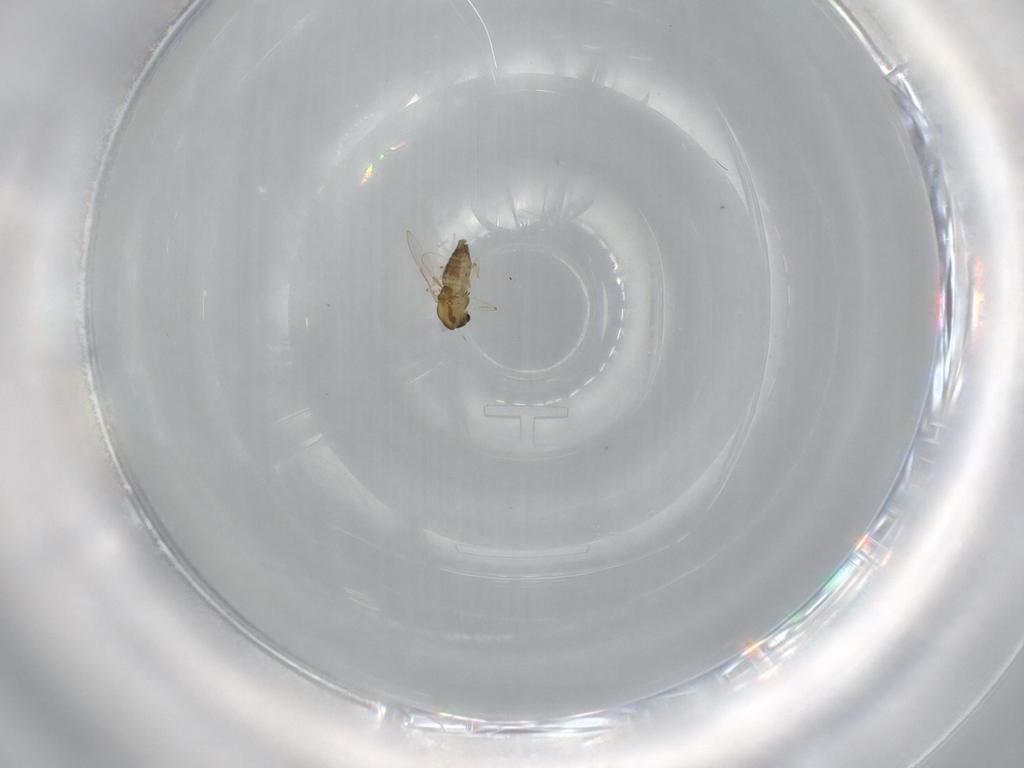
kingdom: Animalia
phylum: Arthropoda
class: Insecta
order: Diptera
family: Chironomidae
